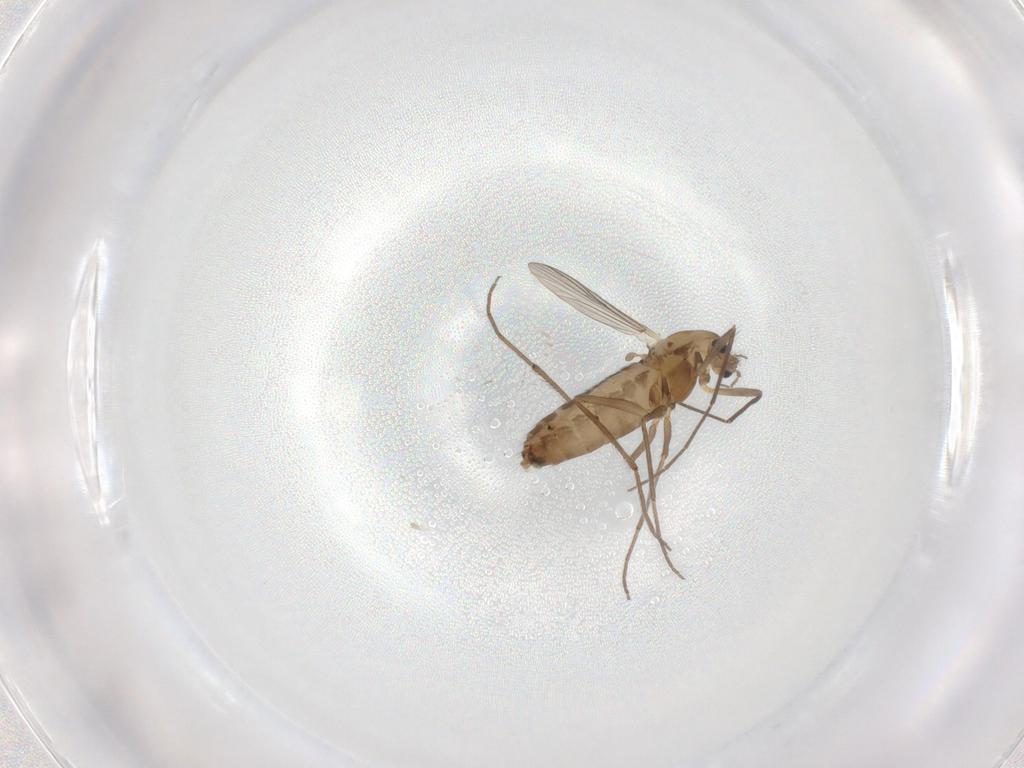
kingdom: Animalia
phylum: Arthropoda
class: Insecta
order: Diptera
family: Chironomidae
